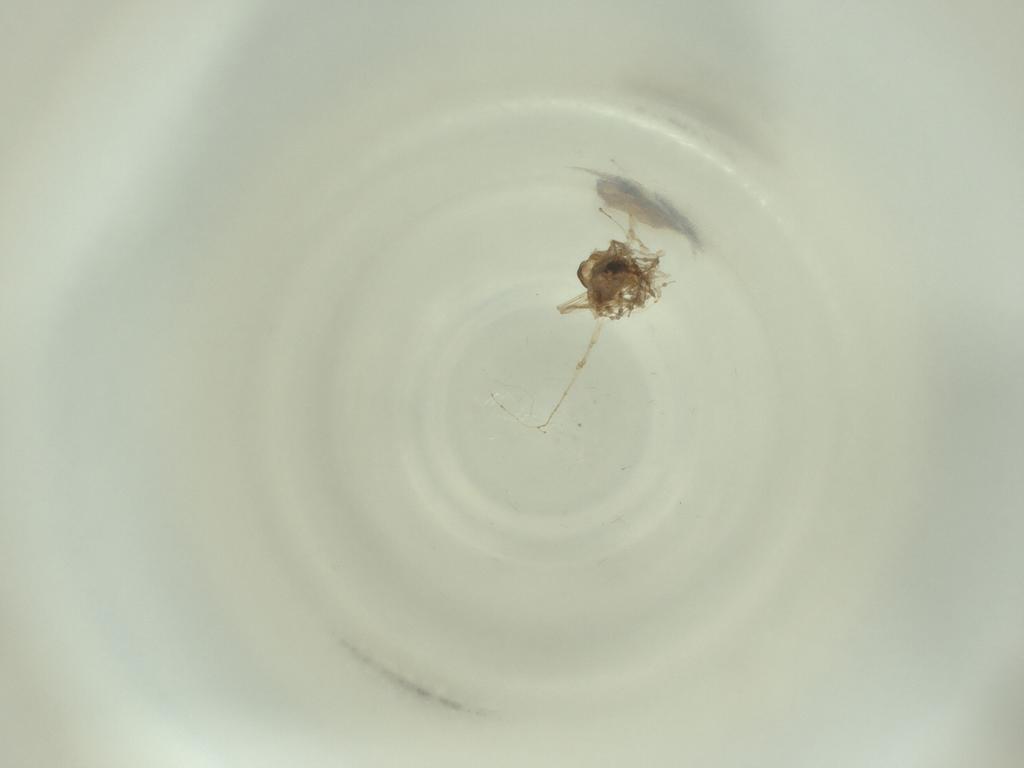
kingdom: Animalia
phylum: Arthropoda
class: Insecta
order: Diptera
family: Cecidomyiidae
